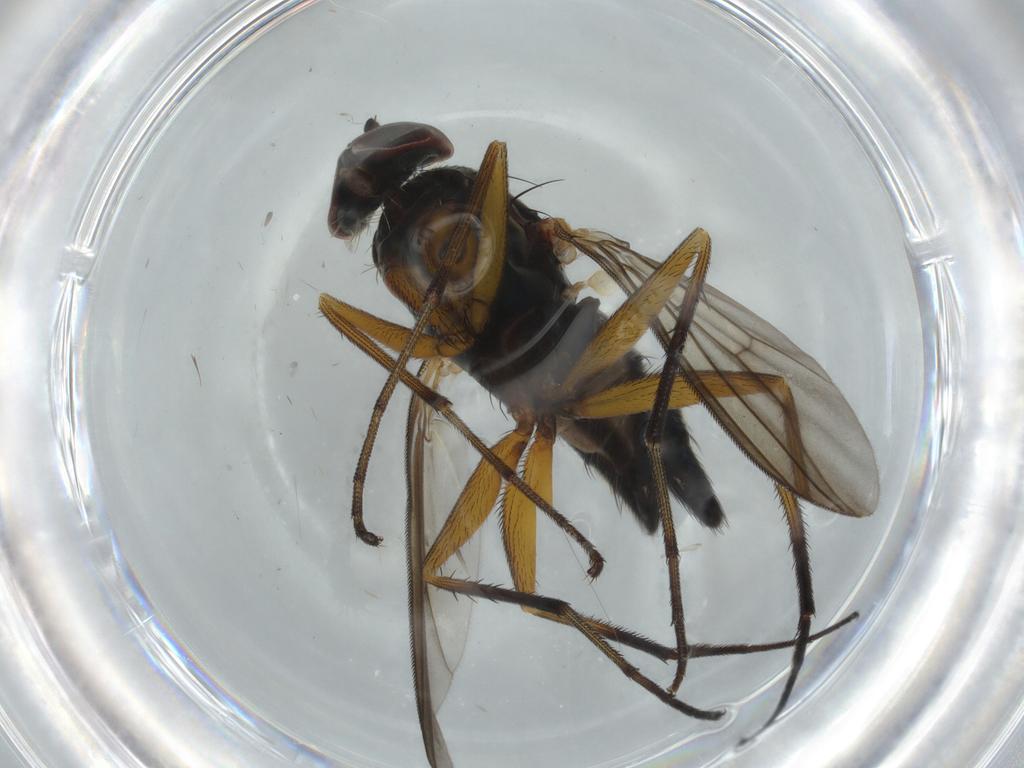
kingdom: Animalia
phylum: Arthropoda
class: Insecta
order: Diptera
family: Dolichopodidae
